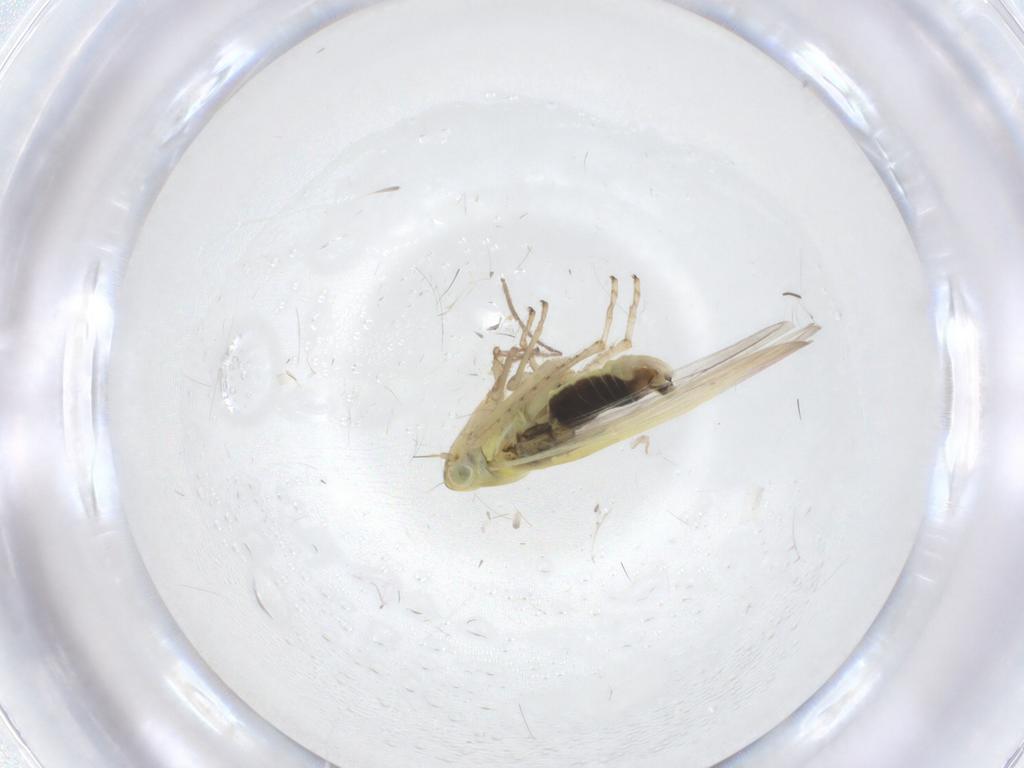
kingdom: Animalia
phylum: Arthropoda
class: Insecta
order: Hemiptera
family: Cicadellidae
